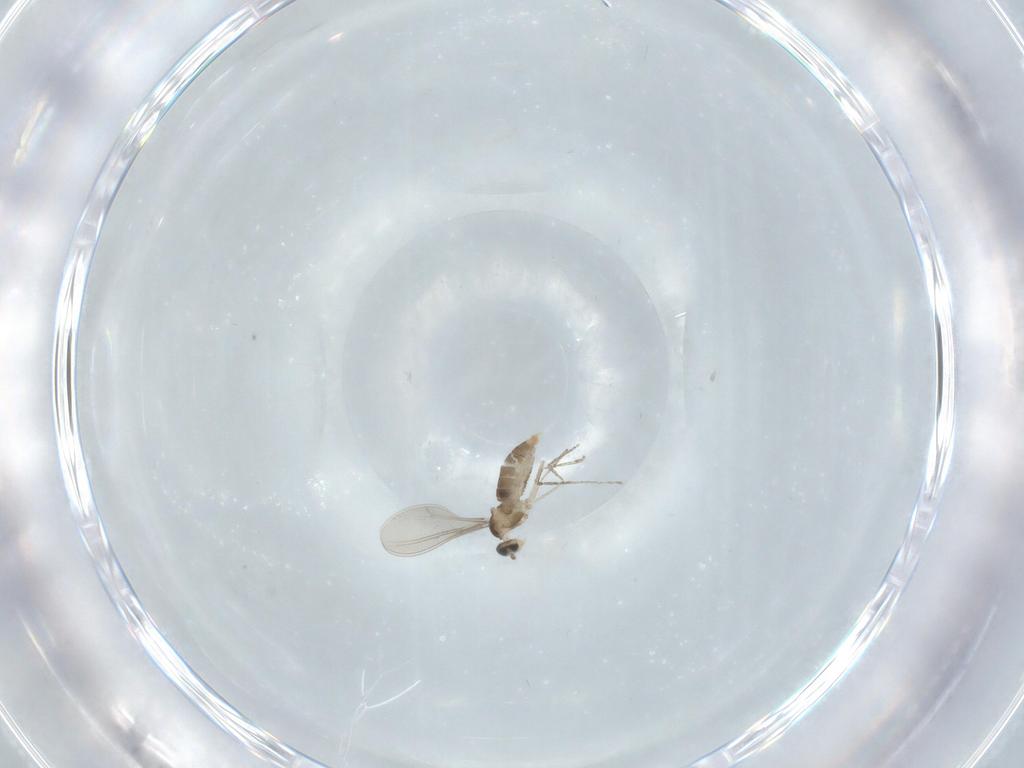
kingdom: Animalia
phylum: Arthropoda
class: Insecta
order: Diptera
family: Cecidomyiidae
